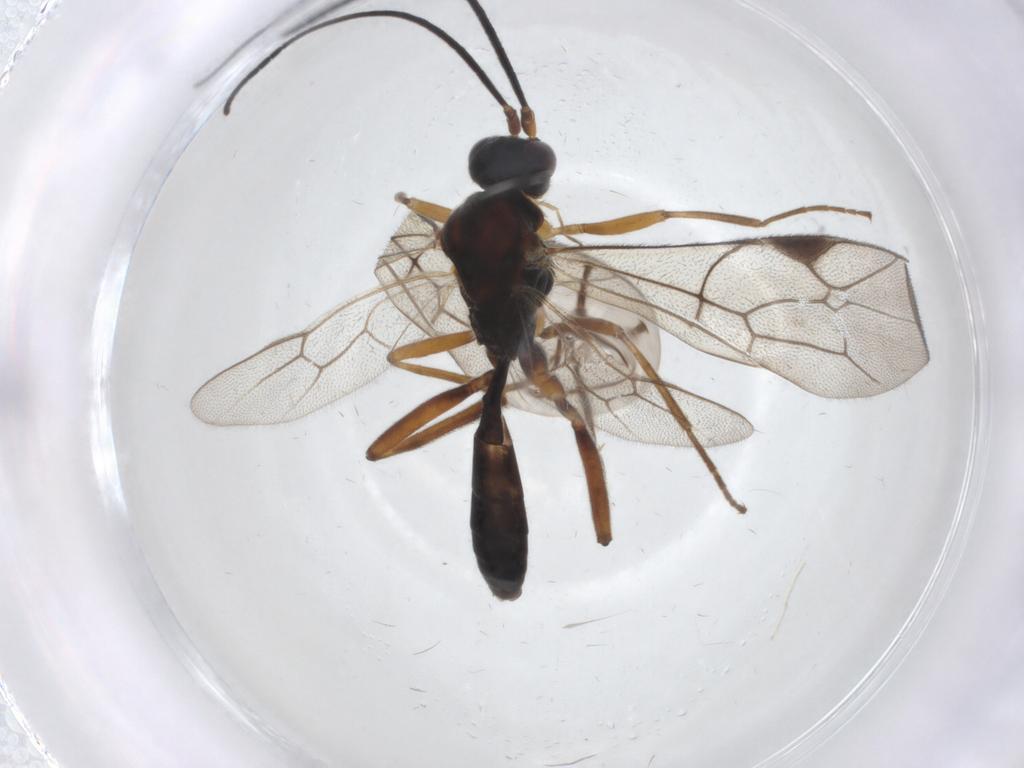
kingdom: Animalia
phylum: Arthropoda
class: Insecta
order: Hymenoptera
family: Ichneumonidae
